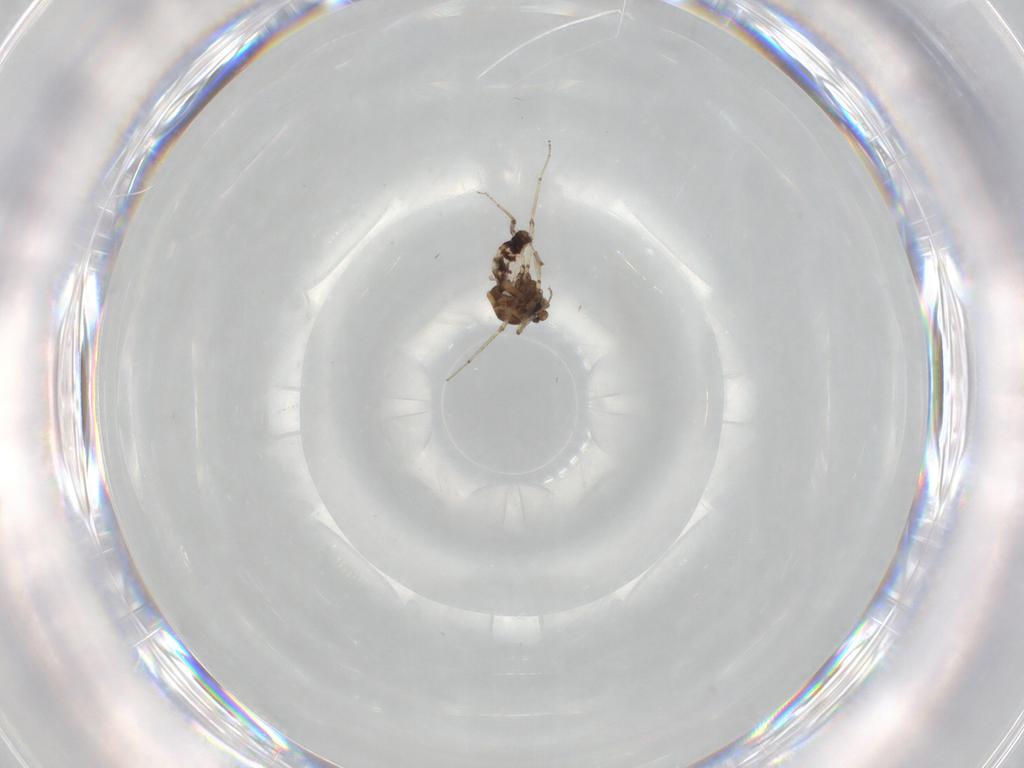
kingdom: Animalia
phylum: Arthropoda
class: Insecta
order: Diptera
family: Ceratopogonidae
